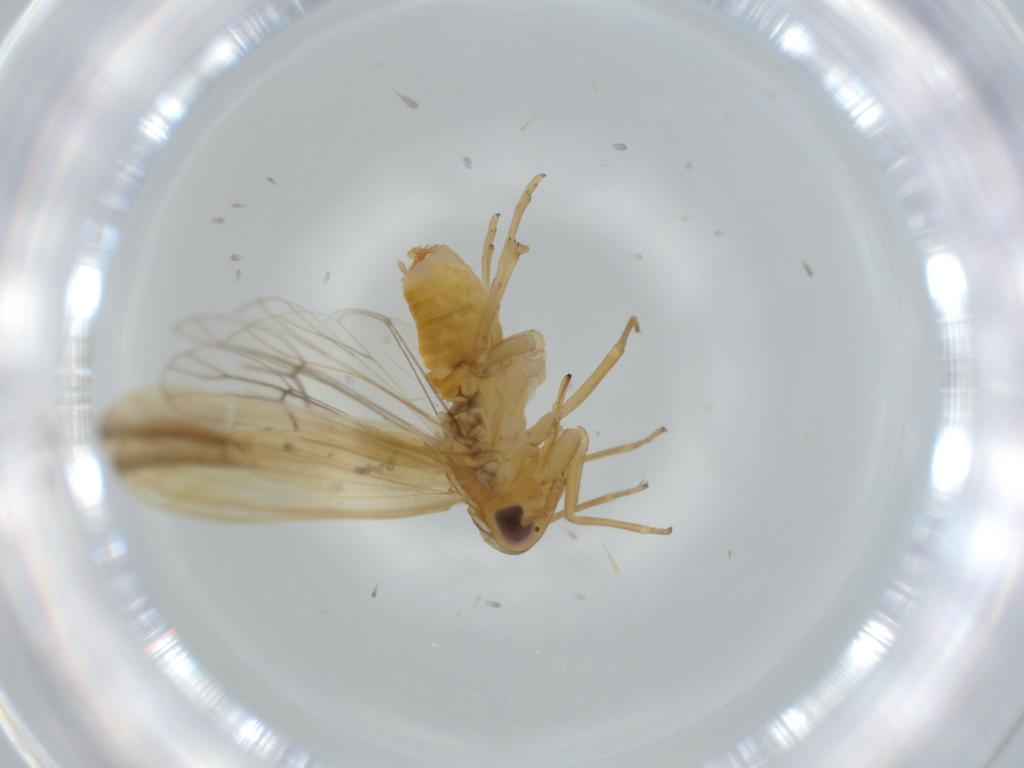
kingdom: Animalia
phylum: Arthropoda
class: Insecta
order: Hemiptera
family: Delphacidae
